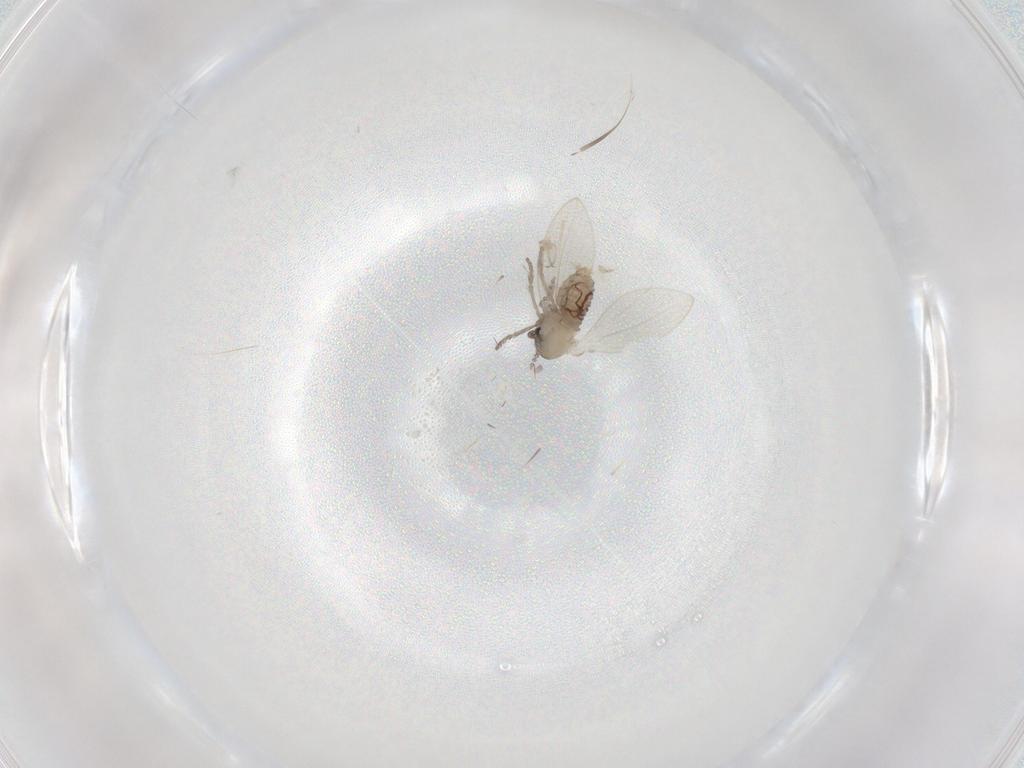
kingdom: Animalia
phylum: Arthropoda
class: Insecta
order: Diptera
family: Psychodidae
